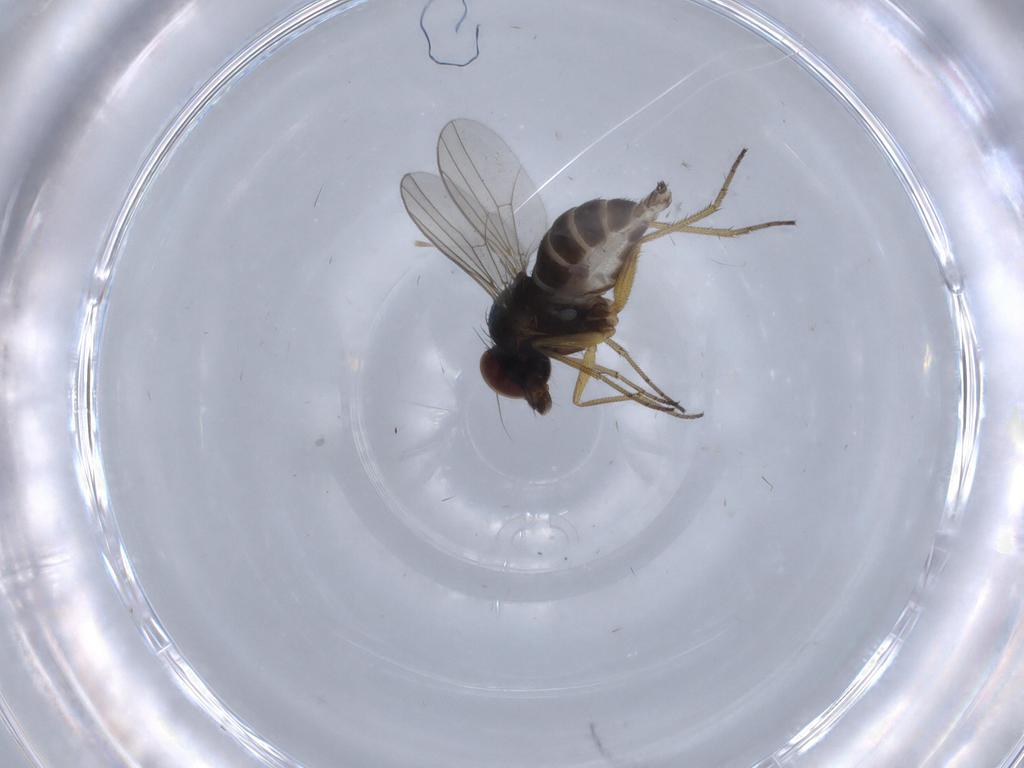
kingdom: Animalia
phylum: Arthropoda
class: Insecta
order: Diptera
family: Dolichopodidae
